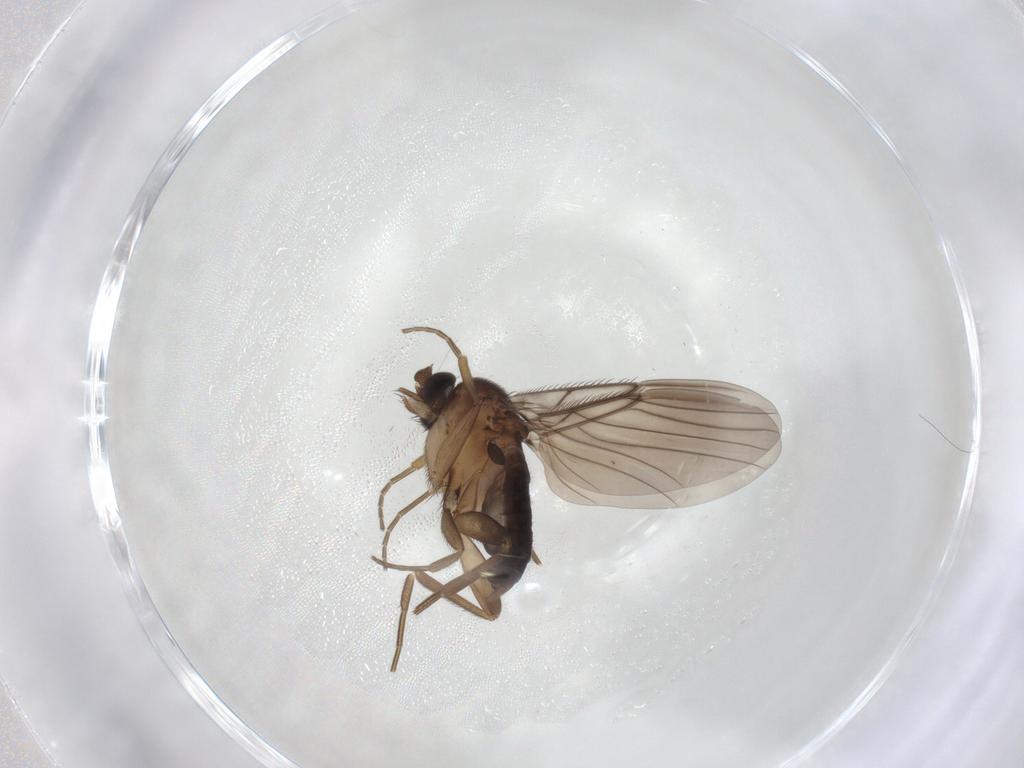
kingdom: Animalia
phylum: Arthropoda
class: Insecta
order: Diptera
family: Phoridae
